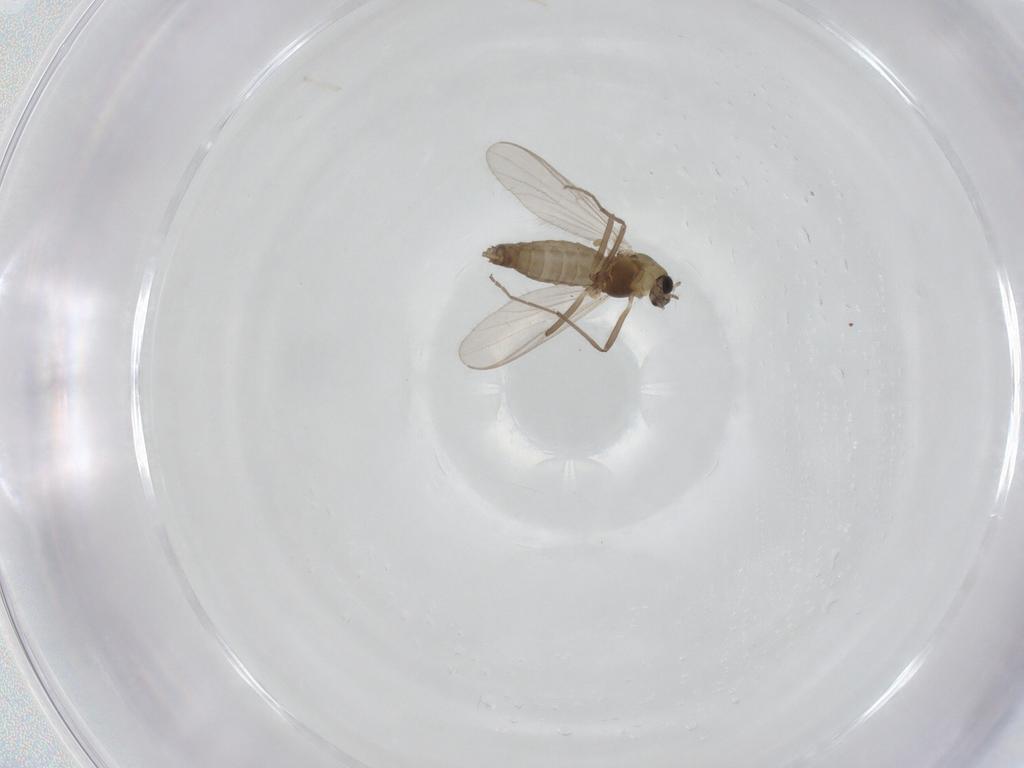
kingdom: Animalia
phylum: Arthropoda
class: Insecta
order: Diptera
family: Chironomidae
